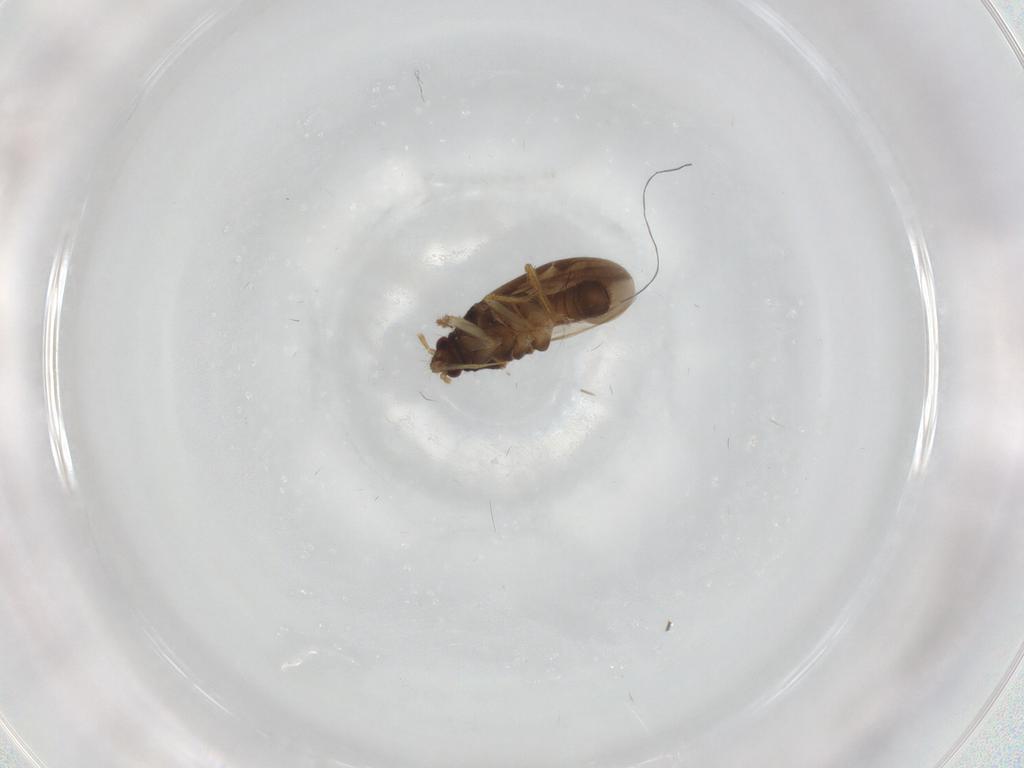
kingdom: Animalia
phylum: Arthropoda
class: Insecta
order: Hemiptera
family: Ceratocombidae
